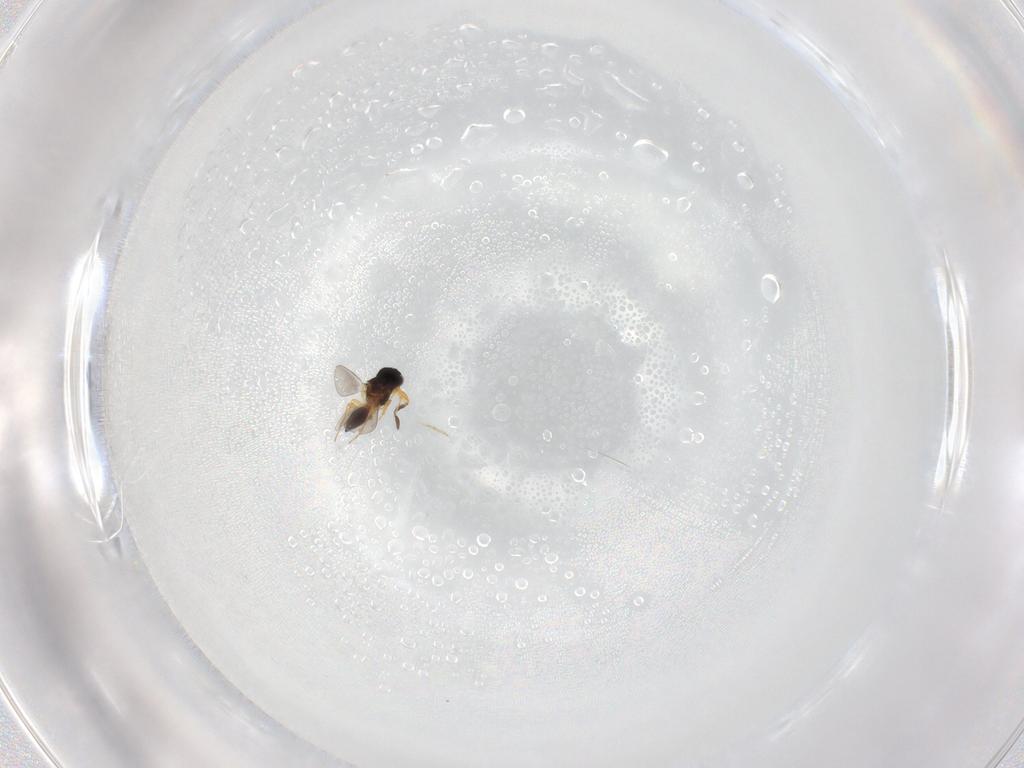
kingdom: Animalia
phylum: Arthropoda
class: Insecta
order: Hymenoptera
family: Platygastridae
